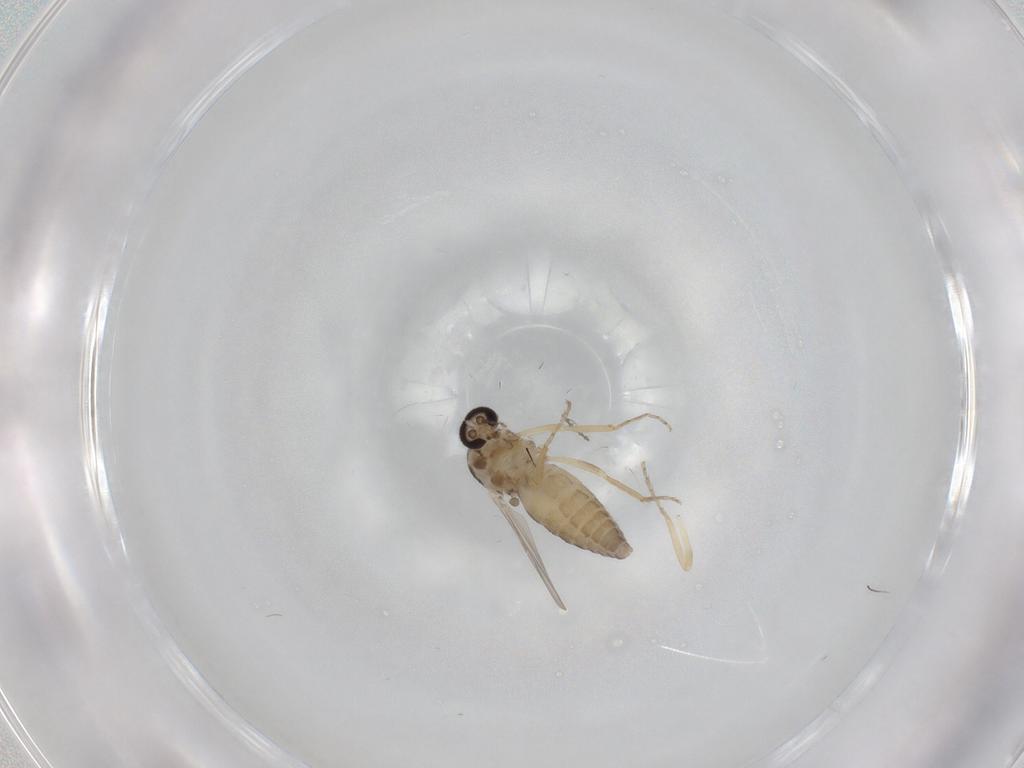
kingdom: Animalia
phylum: Arthropoda
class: Insecta
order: Diptera
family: Ceratopogonidae
